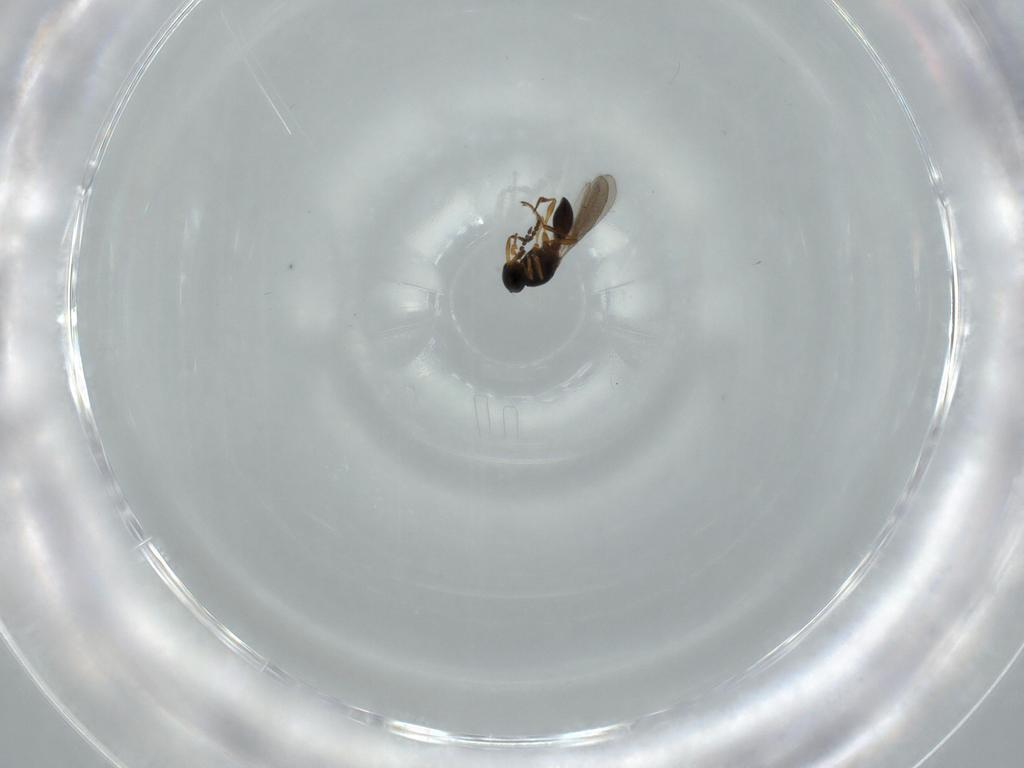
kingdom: Animalia
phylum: Arthropoda
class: Insecta
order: Hymenoptera
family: Platygastridae
